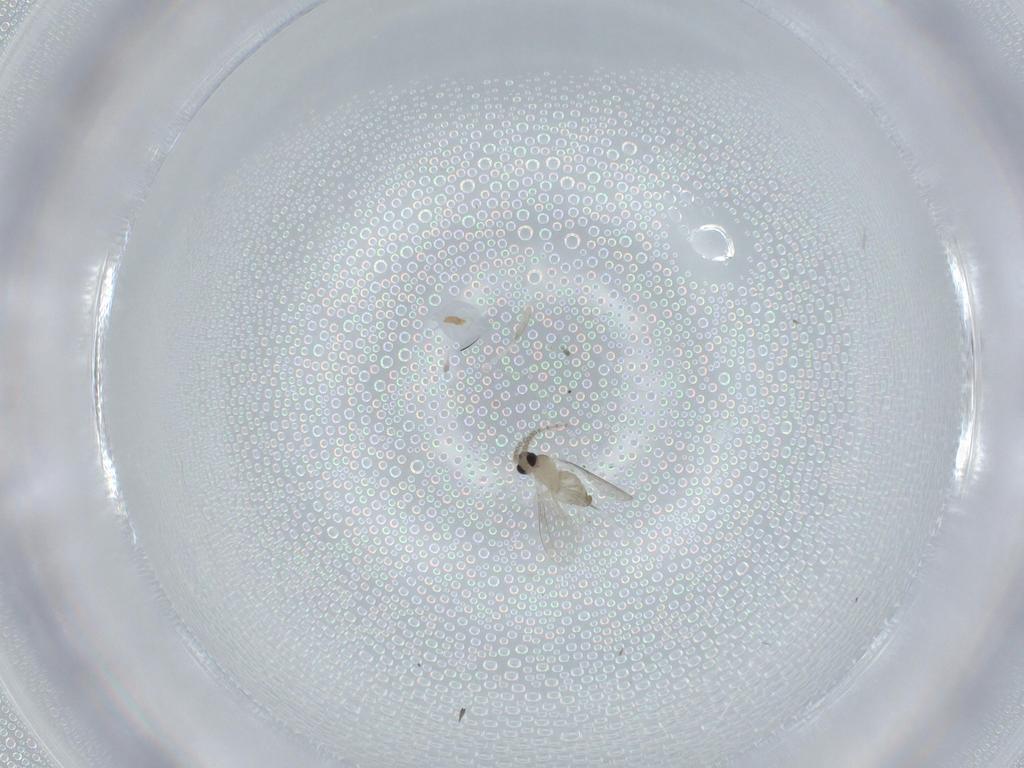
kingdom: Animalia
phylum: Arthropoda
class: Insecta
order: Diptera
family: Cecidomyiidae
